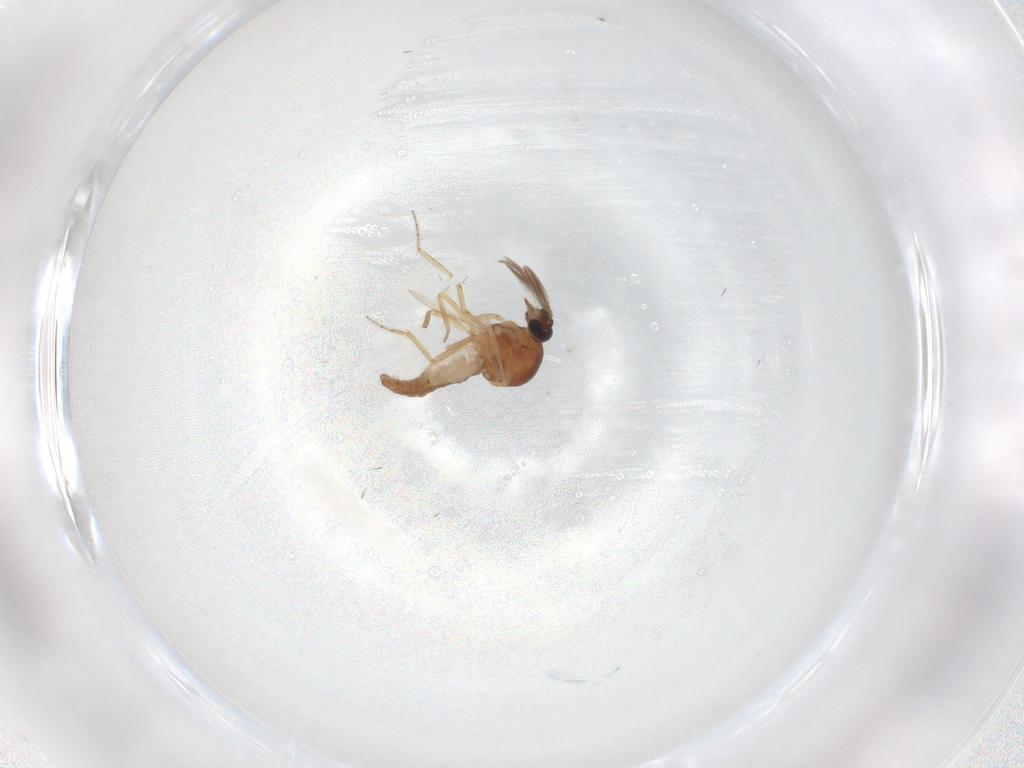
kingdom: Animalia
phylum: Arthropoda
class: Insecta
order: Diptera
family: Ceratopogonidae
